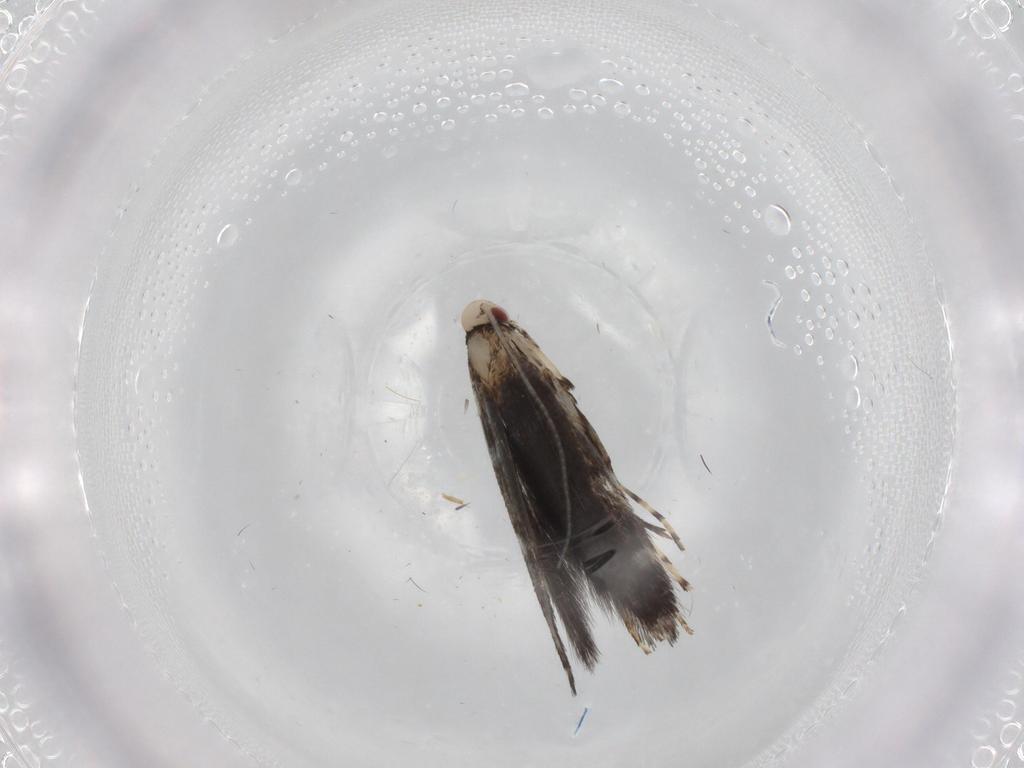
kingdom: Animalia
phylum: Arthropoda
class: Insecta
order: Lepidoptera
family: Gracillariidae
